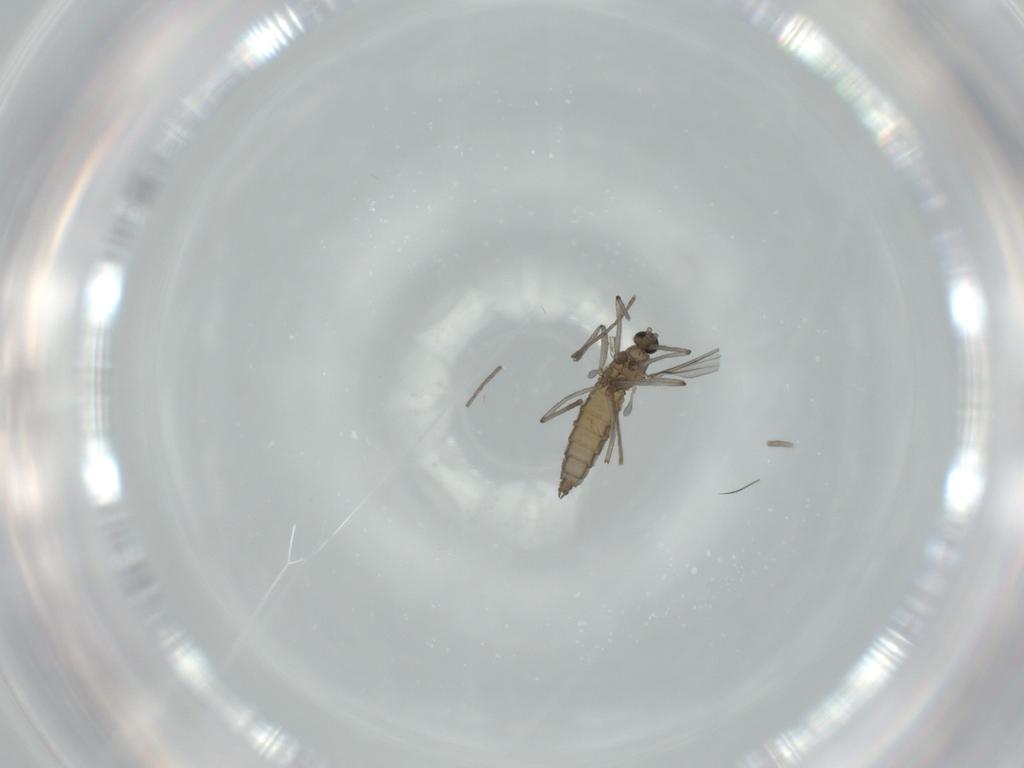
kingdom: Animalia
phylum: Arthropoda
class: Insecta
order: Diptera
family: Cecidomyiidae
